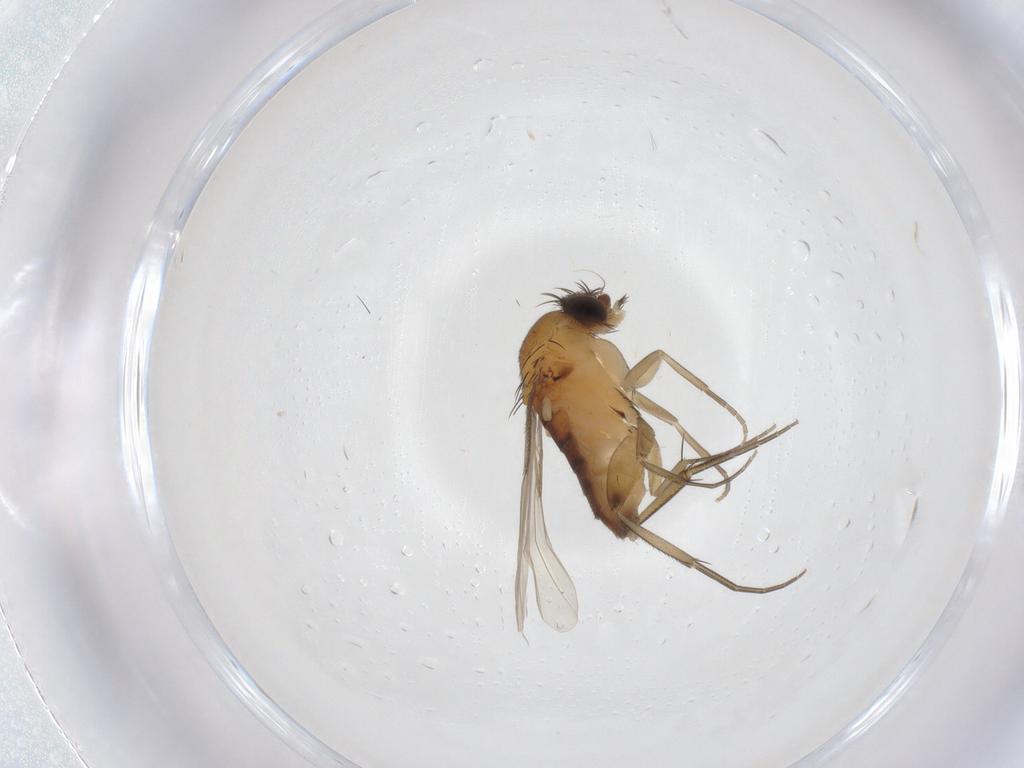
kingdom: Animalia
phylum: Arthropoda
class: Insecta
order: Diptera
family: Phoridae
